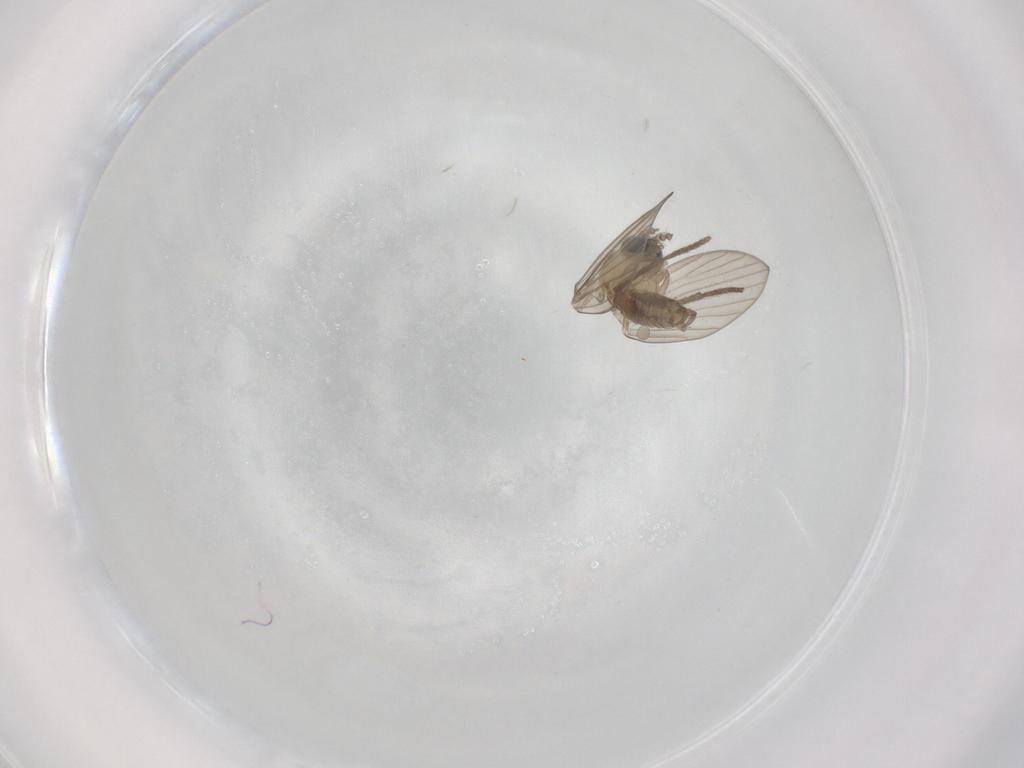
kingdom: Animalia
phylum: Arthropoda
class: Insecta
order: Diptera
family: Psychodidae
